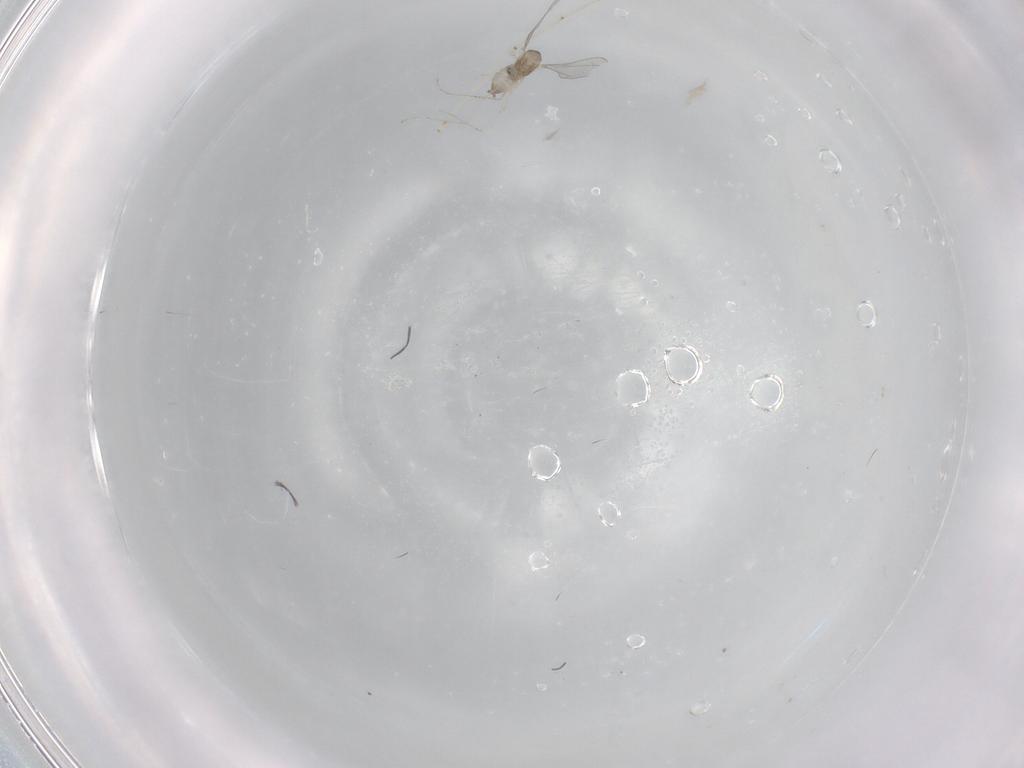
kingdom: Animalia
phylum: Arthropoda
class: Insecta
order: Diptera
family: Cecidomyiidae
